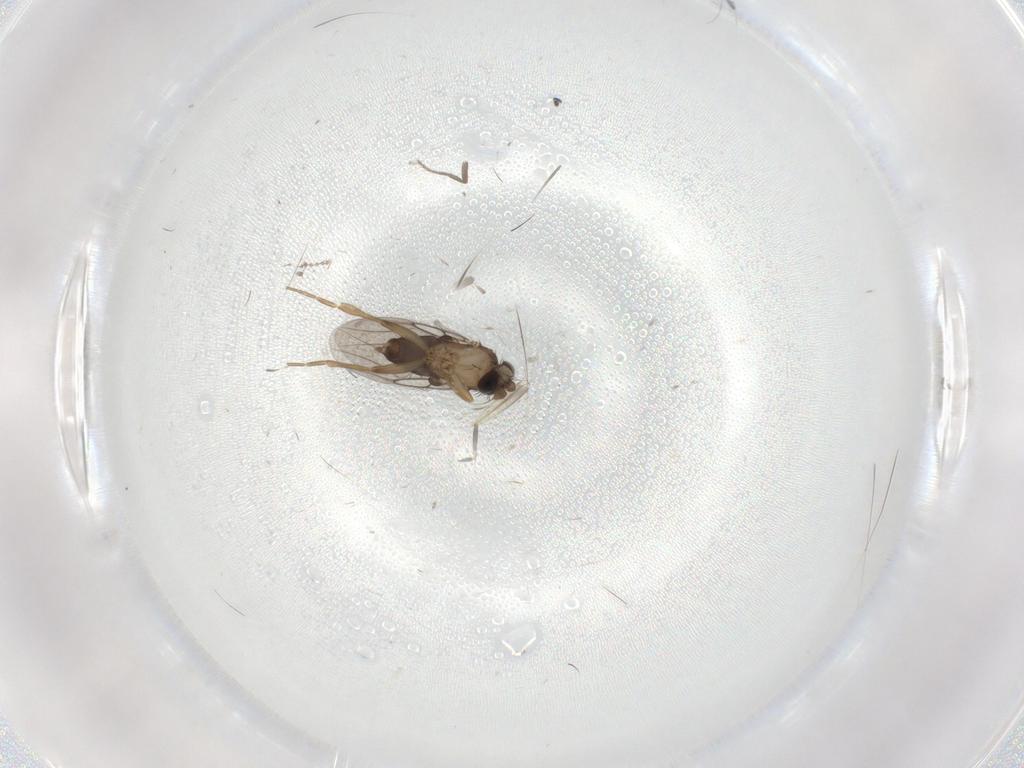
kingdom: Animalia
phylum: Arthropoda
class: Insecta
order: Diptera
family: Phoridae
